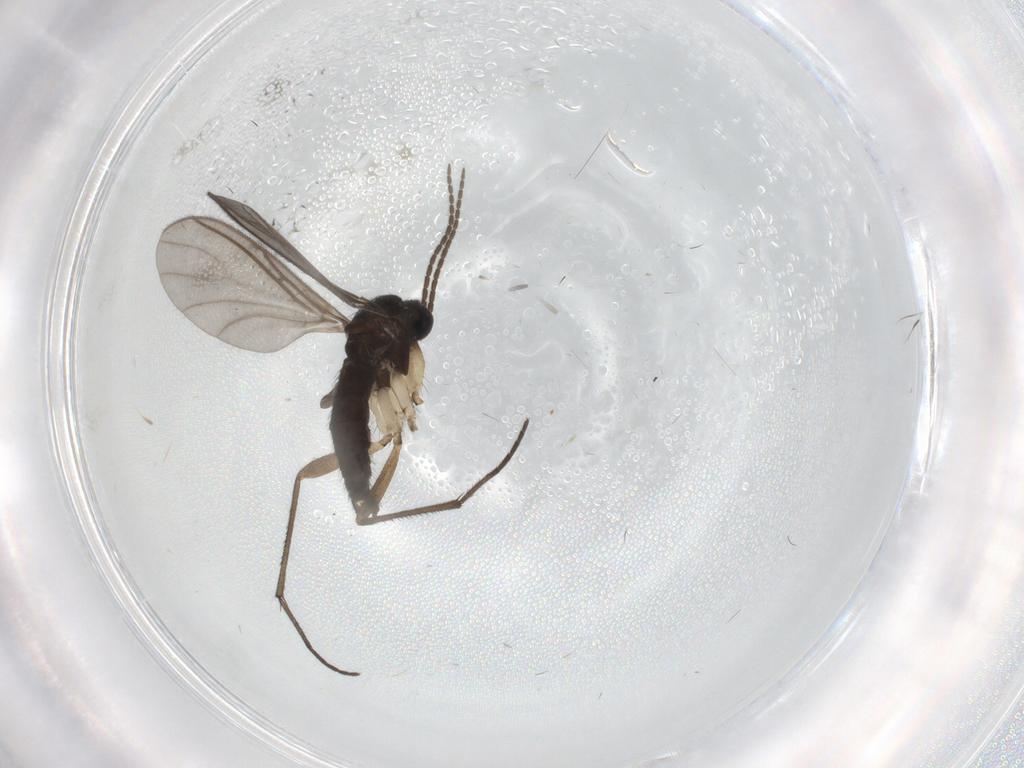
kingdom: Animalia
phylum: Arthropoda
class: Insecta
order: Diptera
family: Sciaridae
